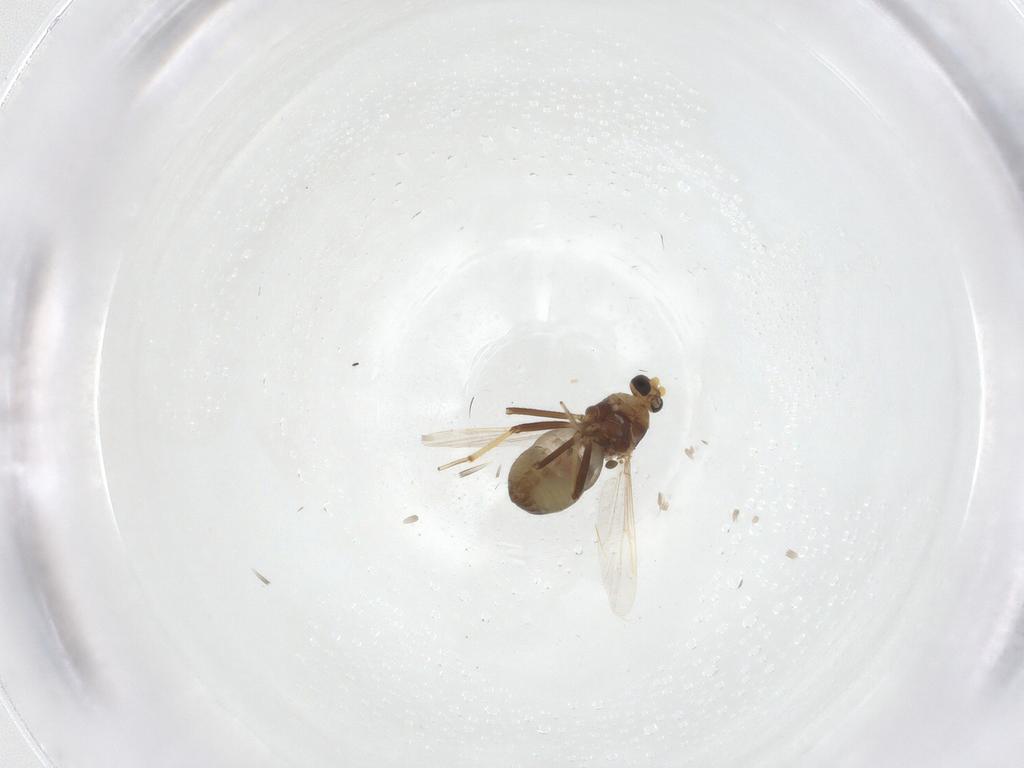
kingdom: Animalia
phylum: Arthropoda
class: Insecta
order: Diptera
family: Ceratopogonidae
